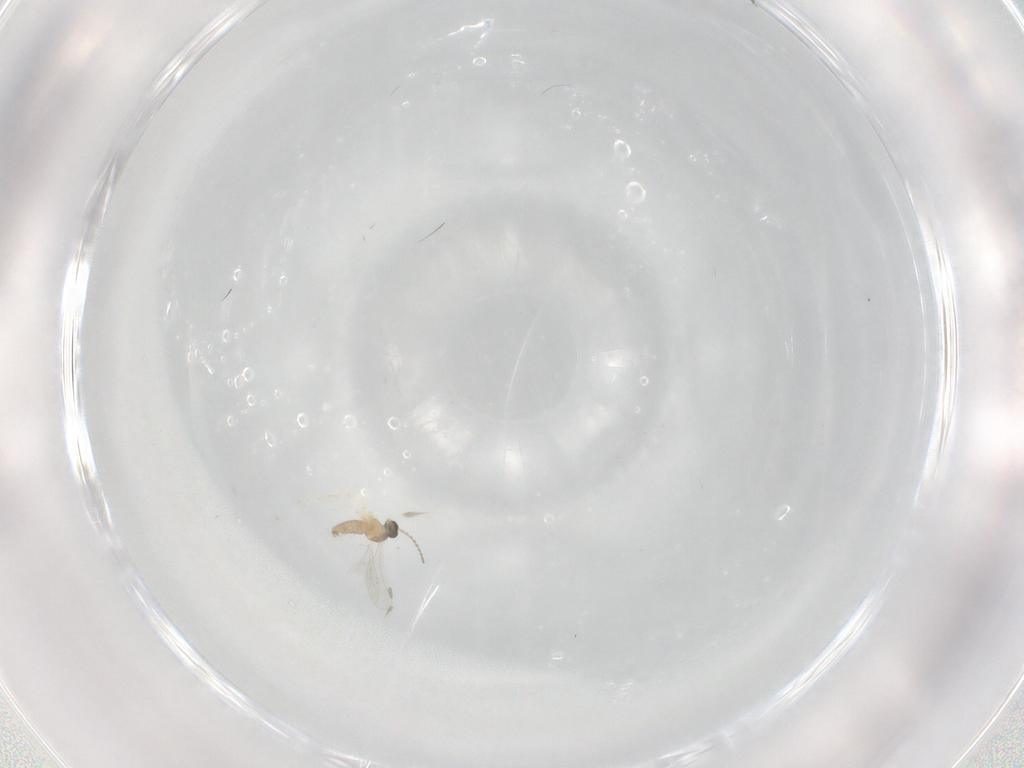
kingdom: Animalia
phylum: Arthropoda
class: Insecta
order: Diptera
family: Cecidomyiidae
